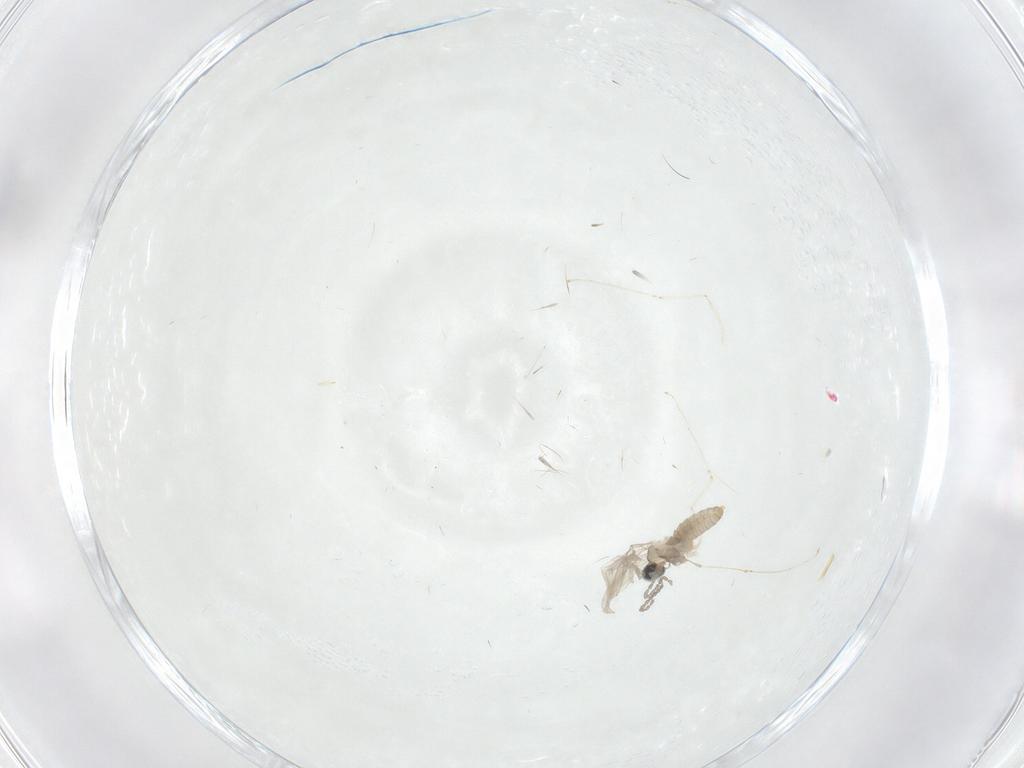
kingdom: Animalia
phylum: Arthropoda
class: Insecta
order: Diptera
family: Cecidomyiidae
